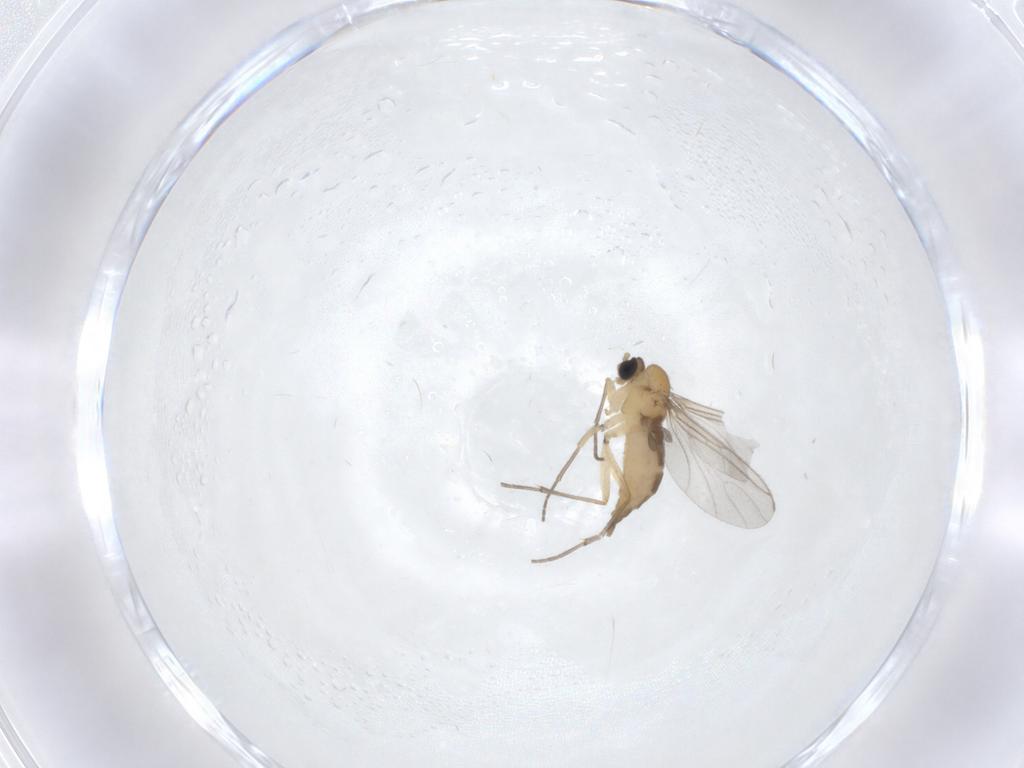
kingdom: Animalia
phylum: Arthropoda
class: Insecta
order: Diptera
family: Sciaridae
